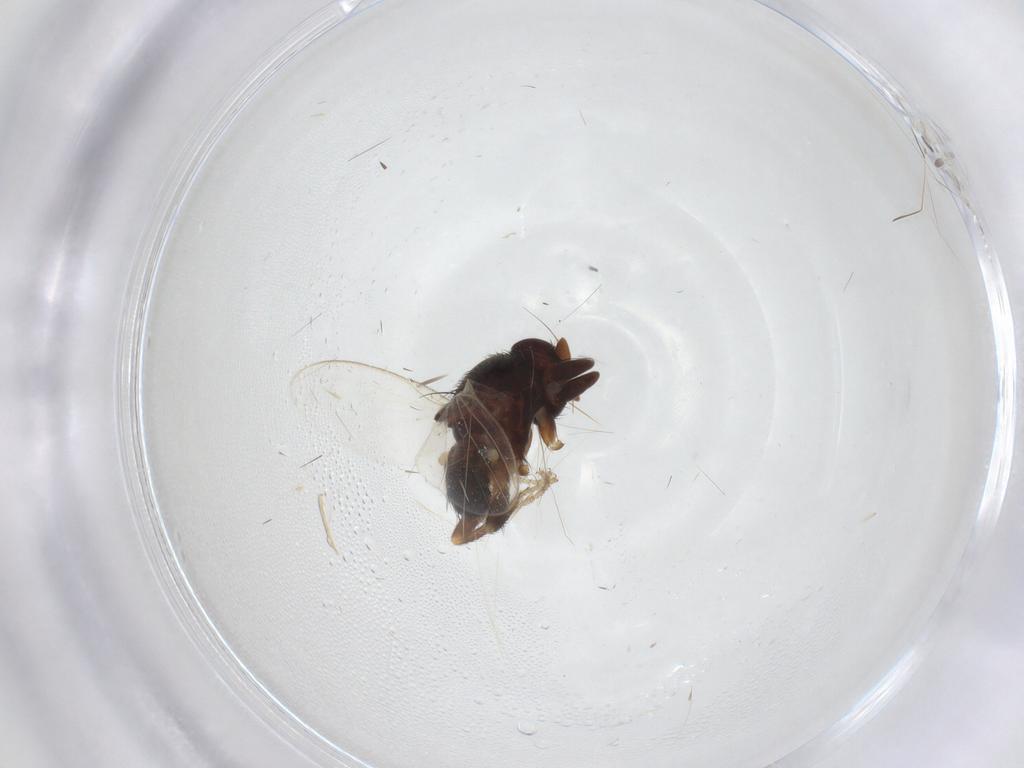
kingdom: Animalia
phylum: Arthropoda
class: Insecta
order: Diptera
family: Milichiidae
